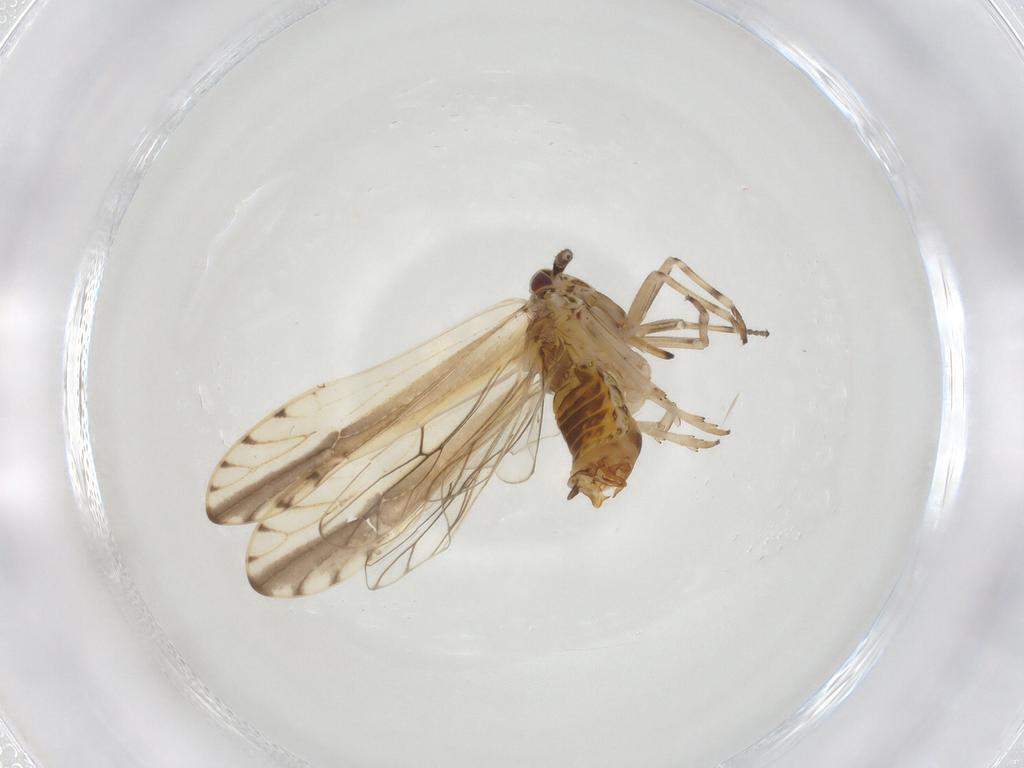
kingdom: Animalia
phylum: Arthropoda
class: Insecta
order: Hemiptera
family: Delphacidae
